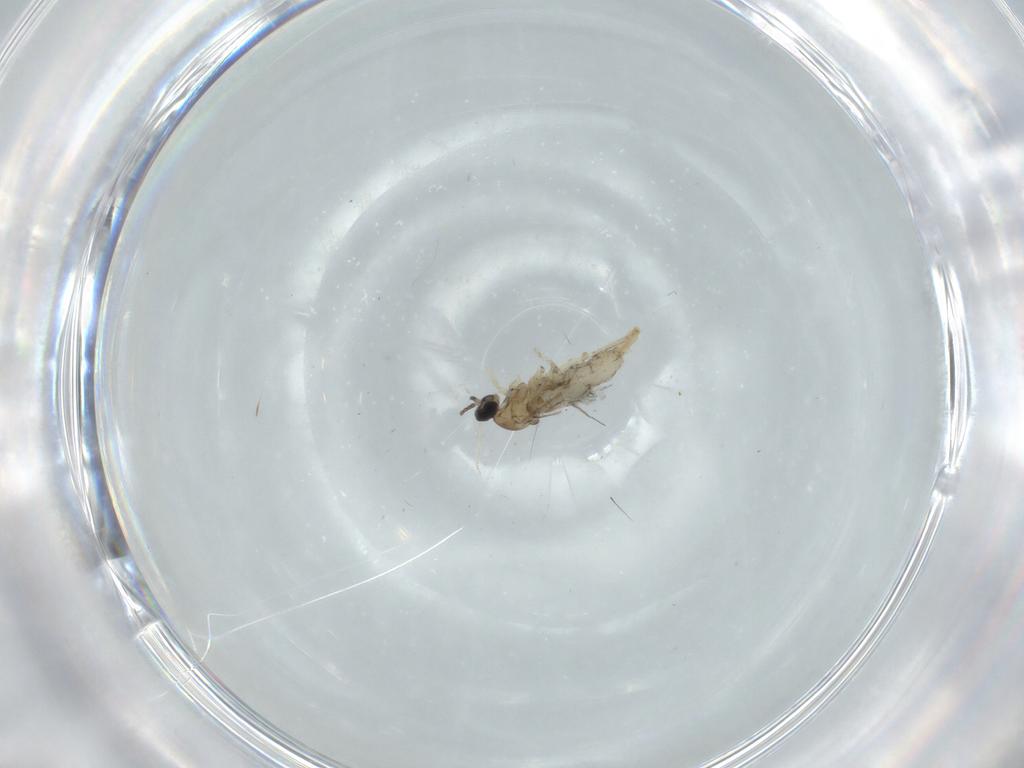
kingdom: Animalia
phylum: Arthropoda
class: Insecta
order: Diptera
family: Cecidomyiidae
